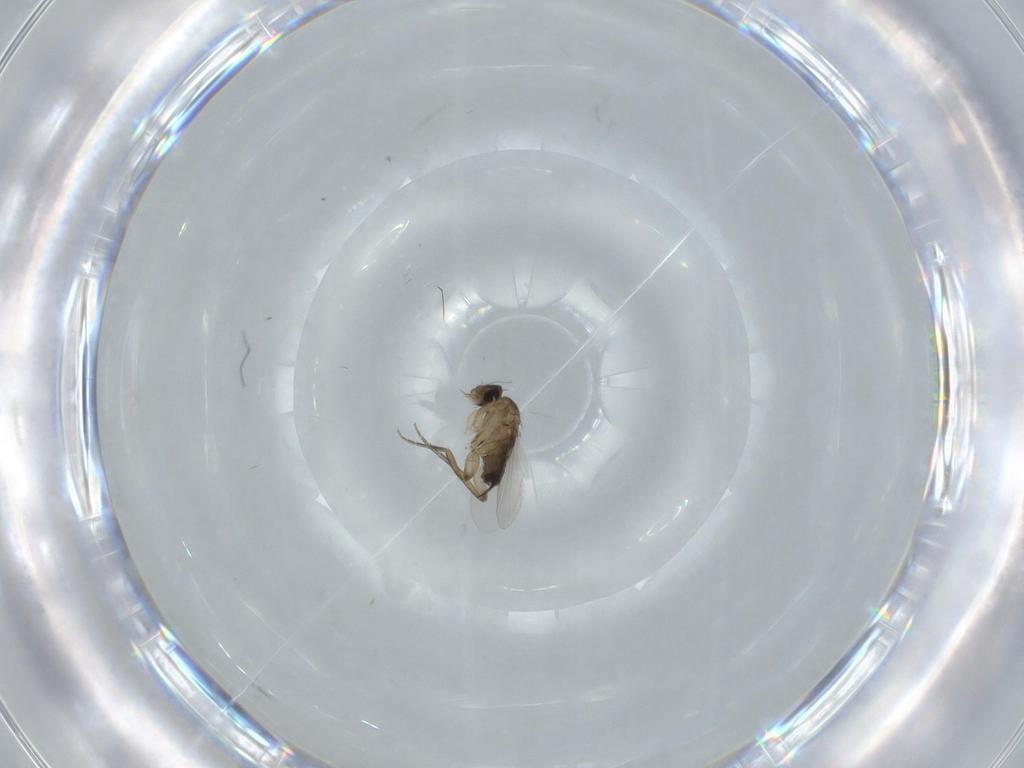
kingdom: Animalia
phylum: Arthropoda
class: Insecta
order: Diptera
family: Phoridae
